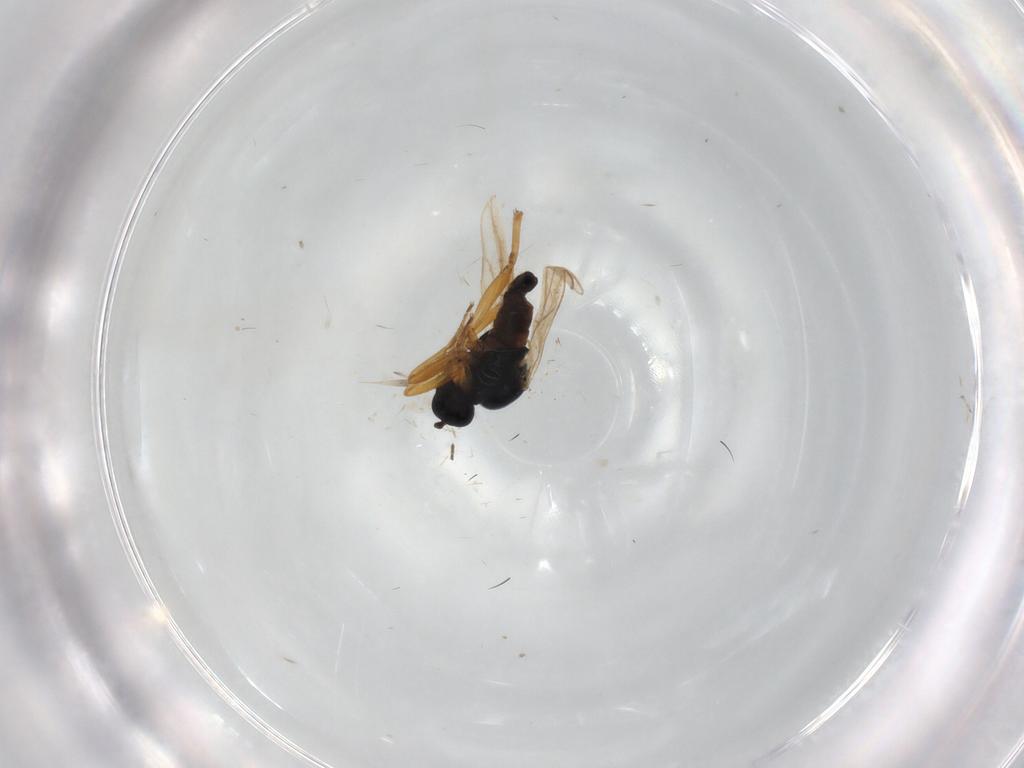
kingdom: Animalia
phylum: Arthropoda
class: Insecta
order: Diptera
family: Hybotidae
